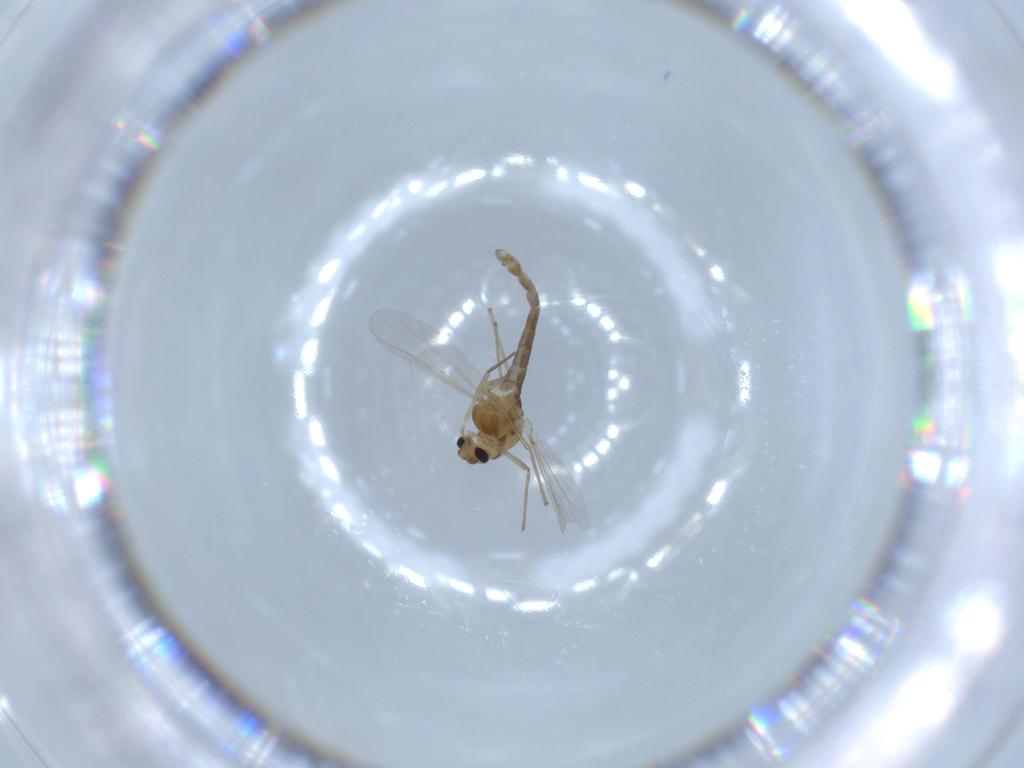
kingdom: Animalia
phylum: Arthropoda
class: Insecta
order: Diptera
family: Chironomidae
